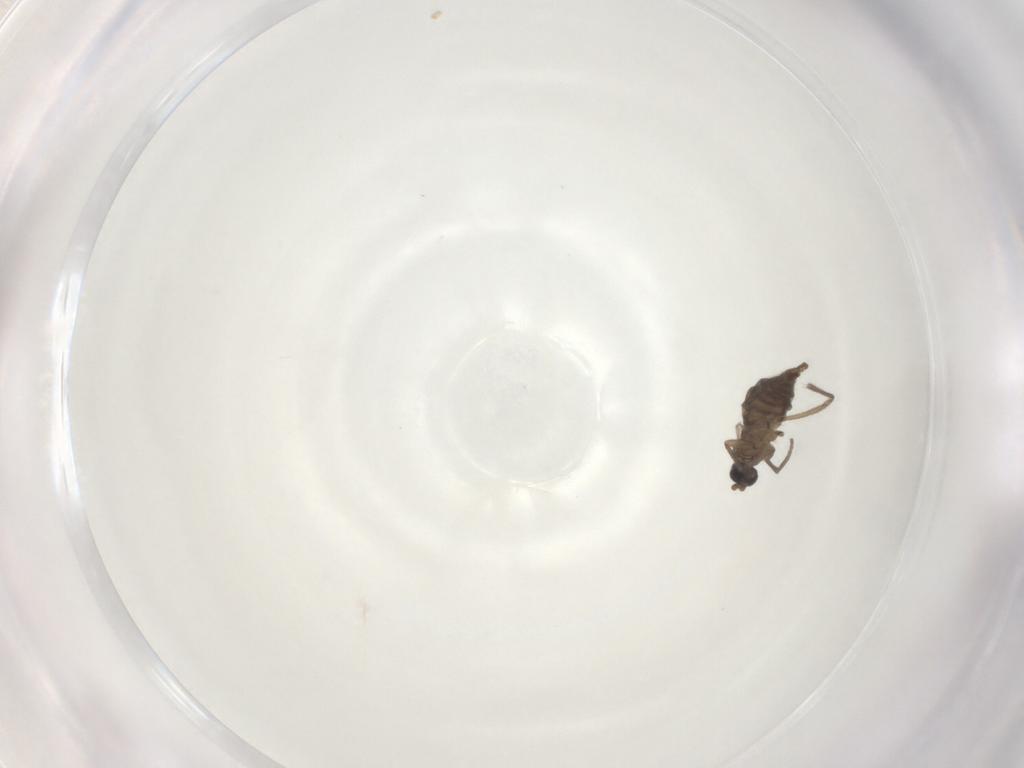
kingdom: Animalia
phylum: Arthropoda
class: Insecta
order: Diptera
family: Sciaridae
